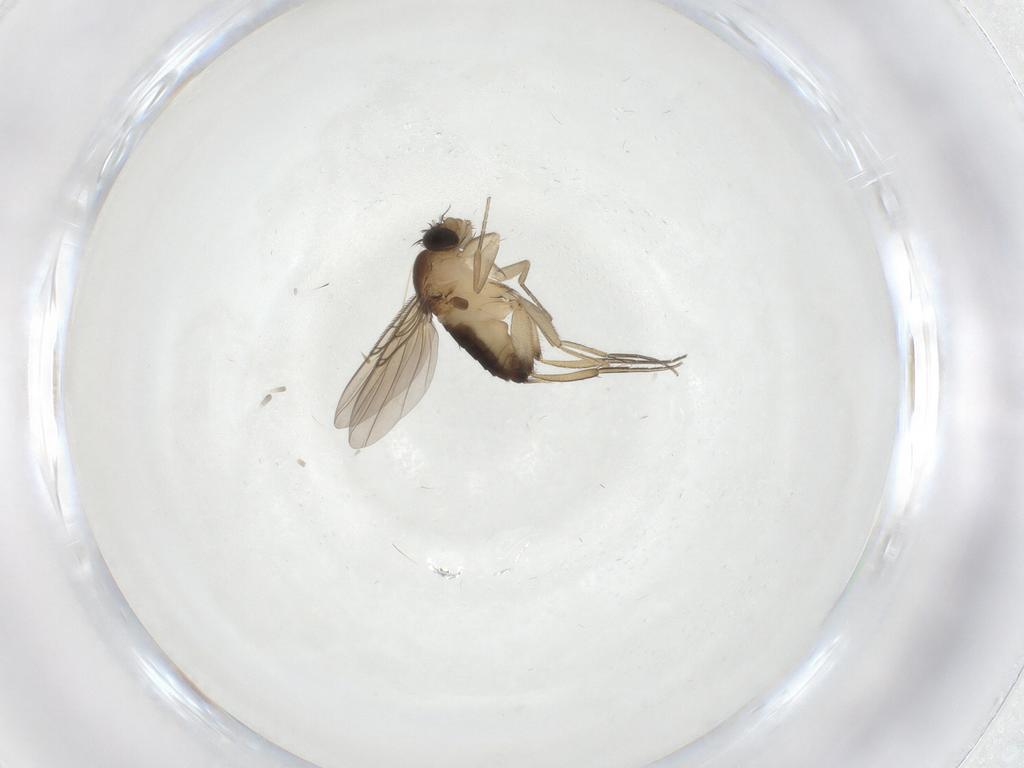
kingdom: Animalia
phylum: Arthropoda
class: Insecta
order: Diptera
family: Phoridae
